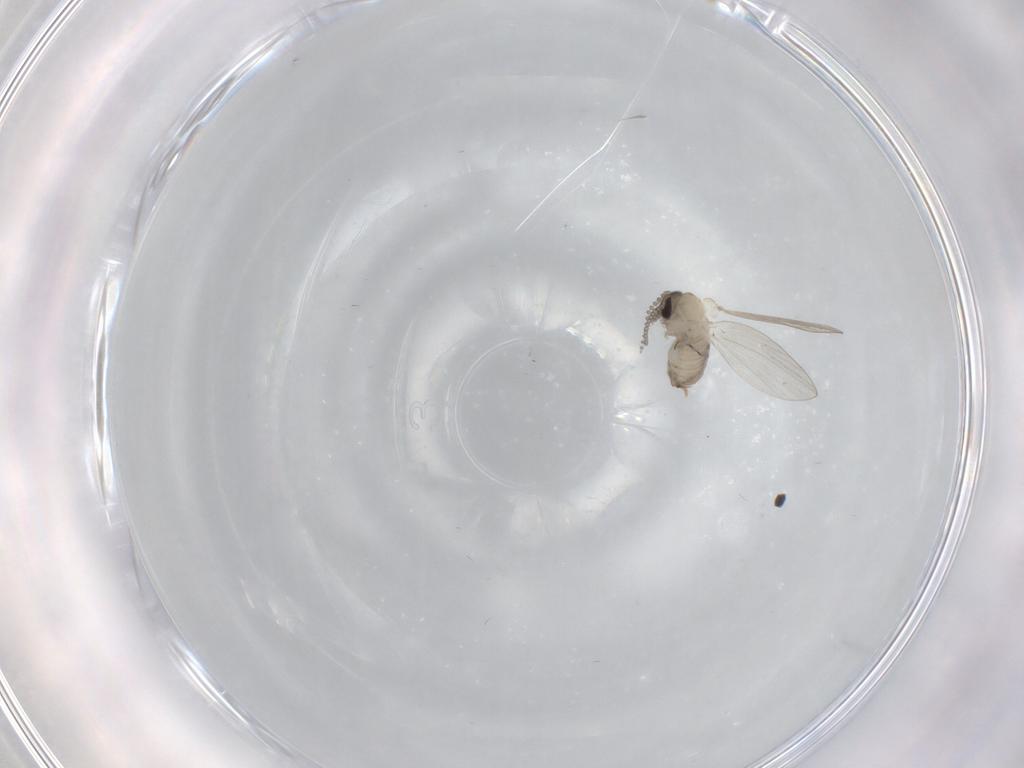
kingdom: Animalia
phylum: Arthropoda
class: Insecta
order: Diptera
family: Psychodidae
